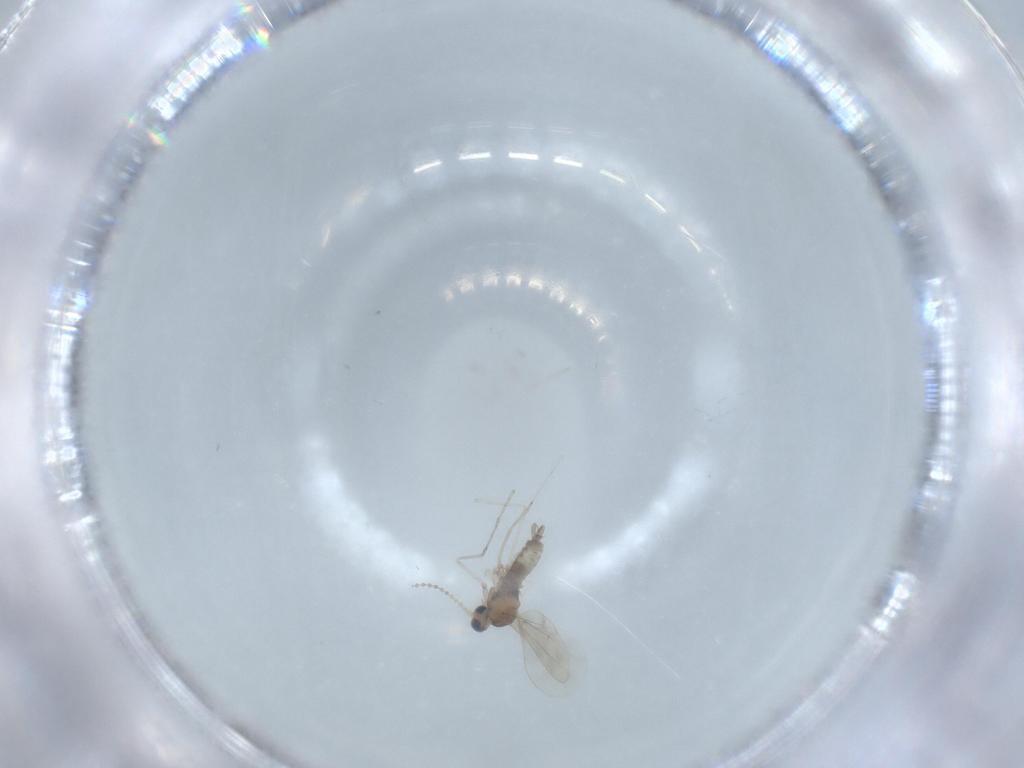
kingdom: Animalia
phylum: Arthropoda
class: Insecta
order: Diptera
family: Cecidomyiidae
